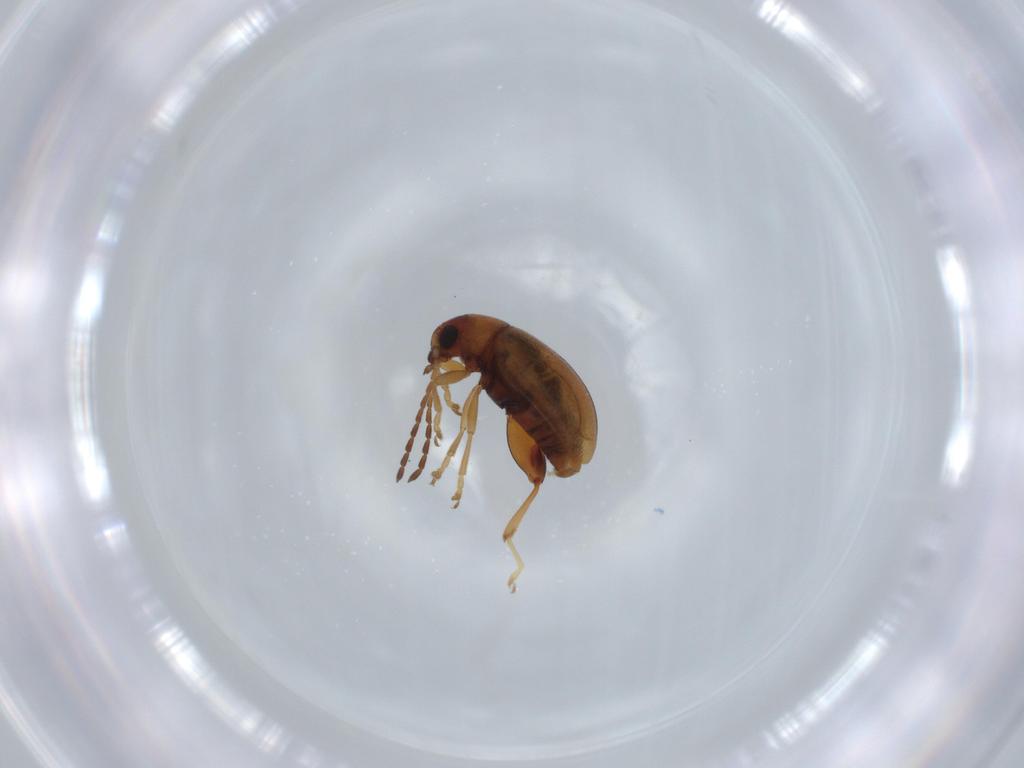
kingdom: Animalia
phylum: Arthropoda
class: Insecta
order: Coleoptera
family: Chrysomelidae
